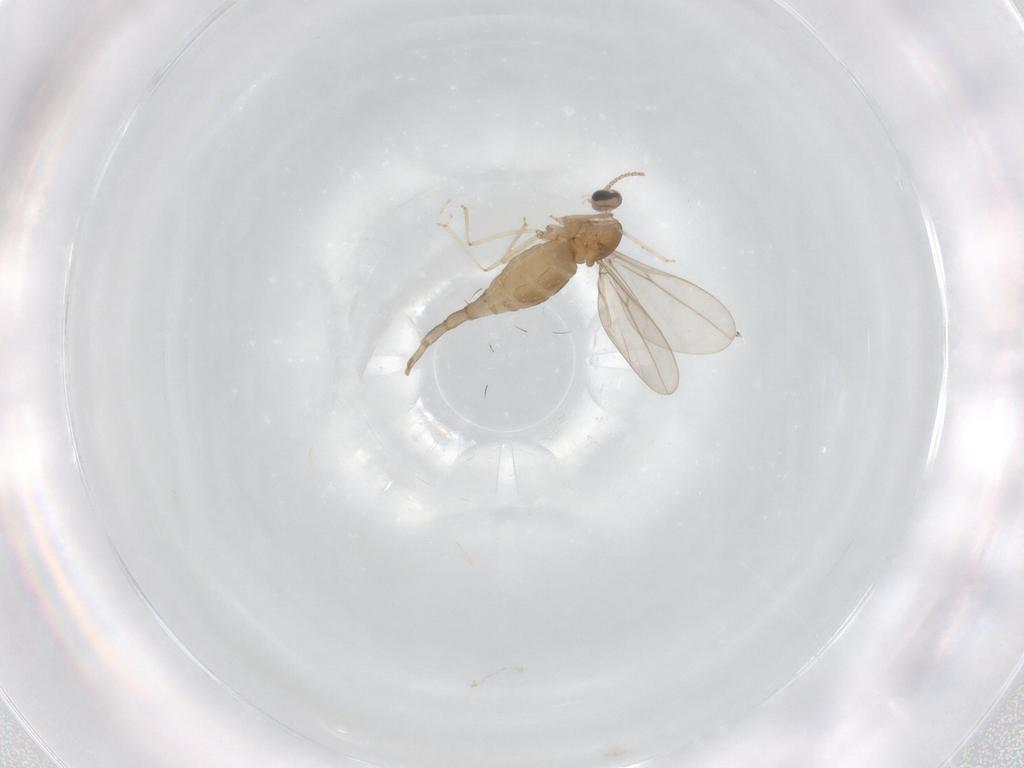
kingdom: Animalia
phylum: Arthropoda
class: Insecta
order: Diptera
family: Cecidomyiidae
